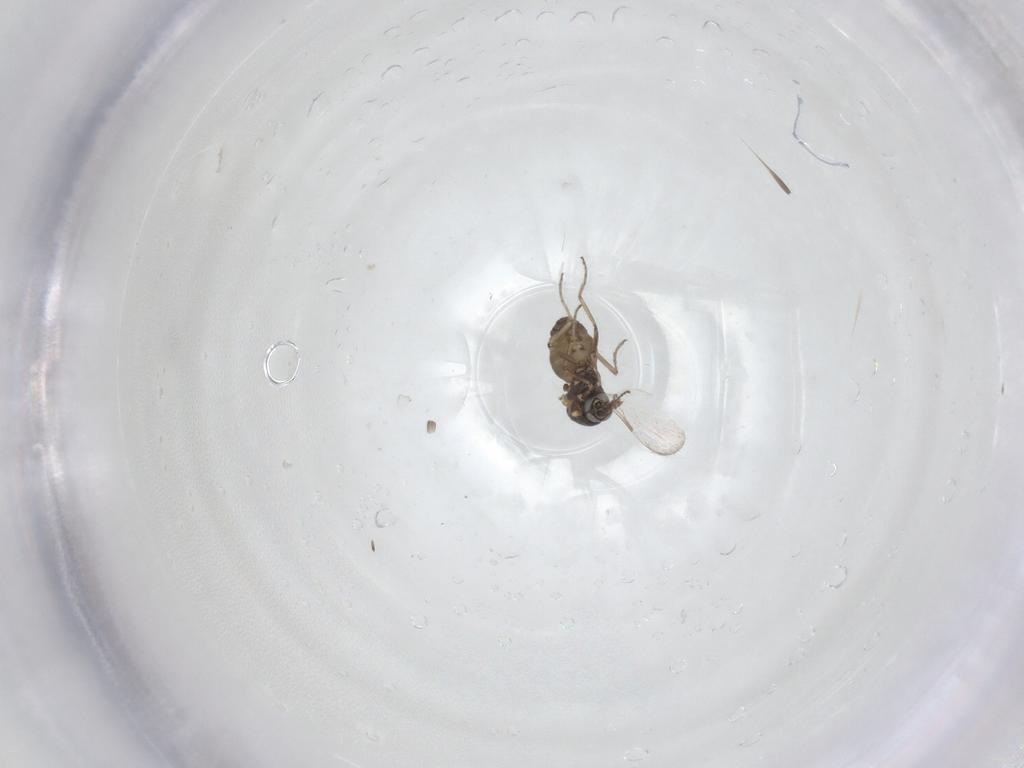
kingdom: Animalia
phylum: Arthropoda
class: Insecta
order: Diptera
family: Ceratopogonidae
